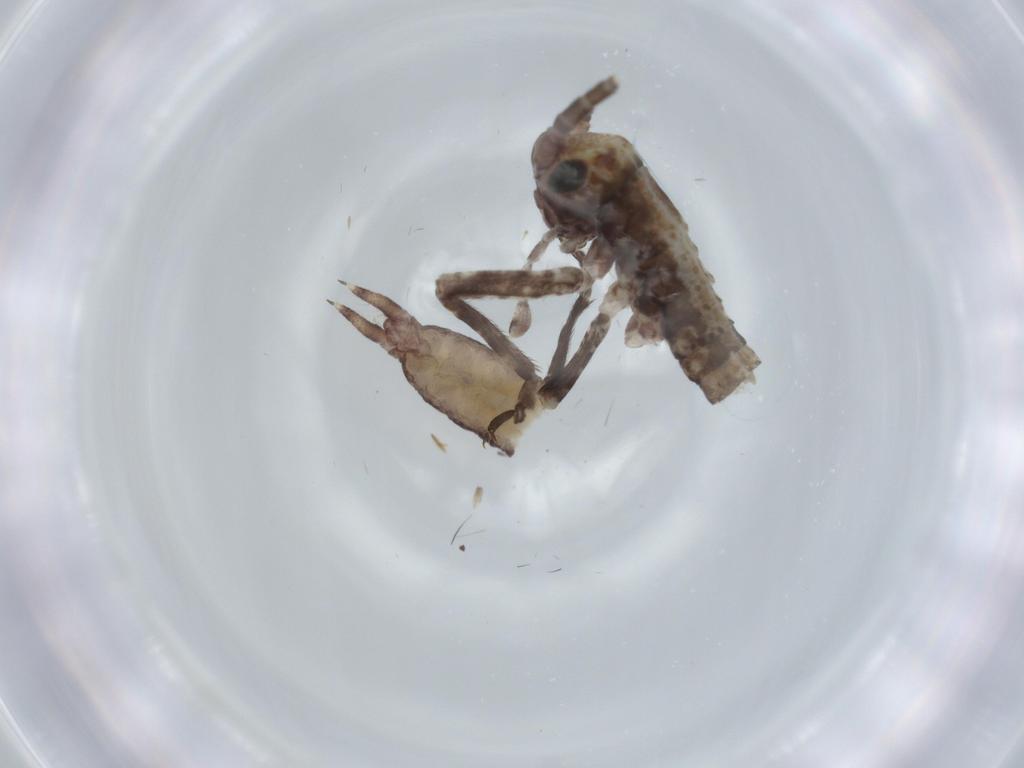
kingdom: Animalia
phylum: Arthropoda
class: Insecta
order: Orthoptera
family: Gryllidae
